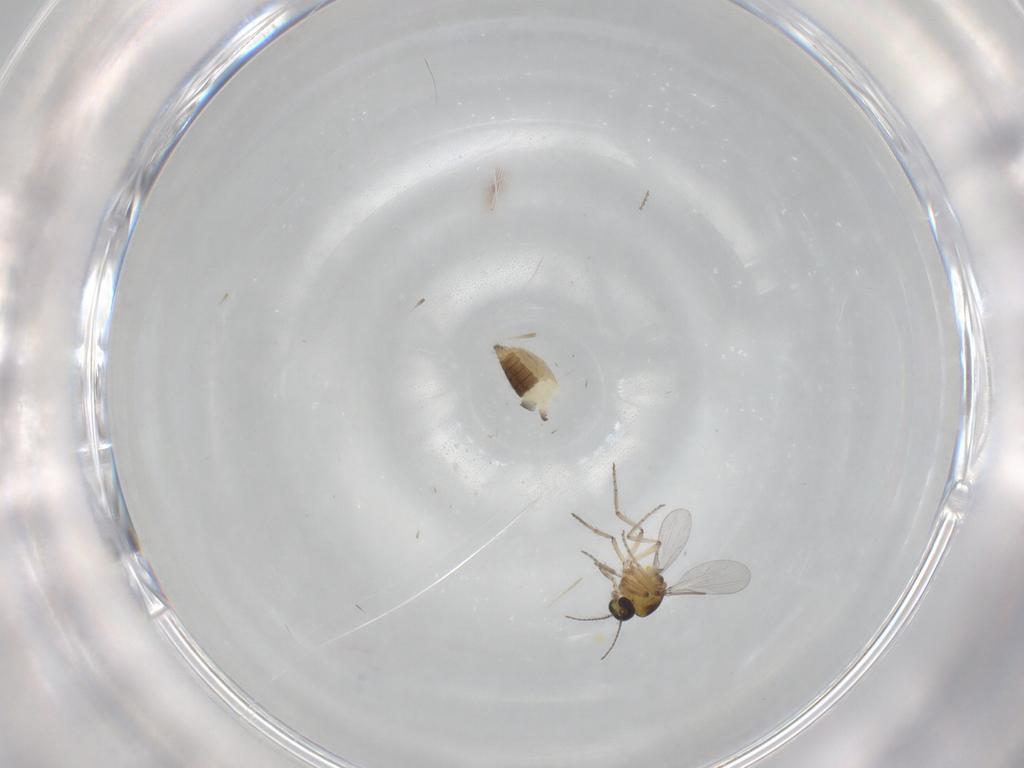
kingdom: Animalia
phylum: Arthropoda
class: Insecta
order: Diptera
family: Ceratopogonidae
